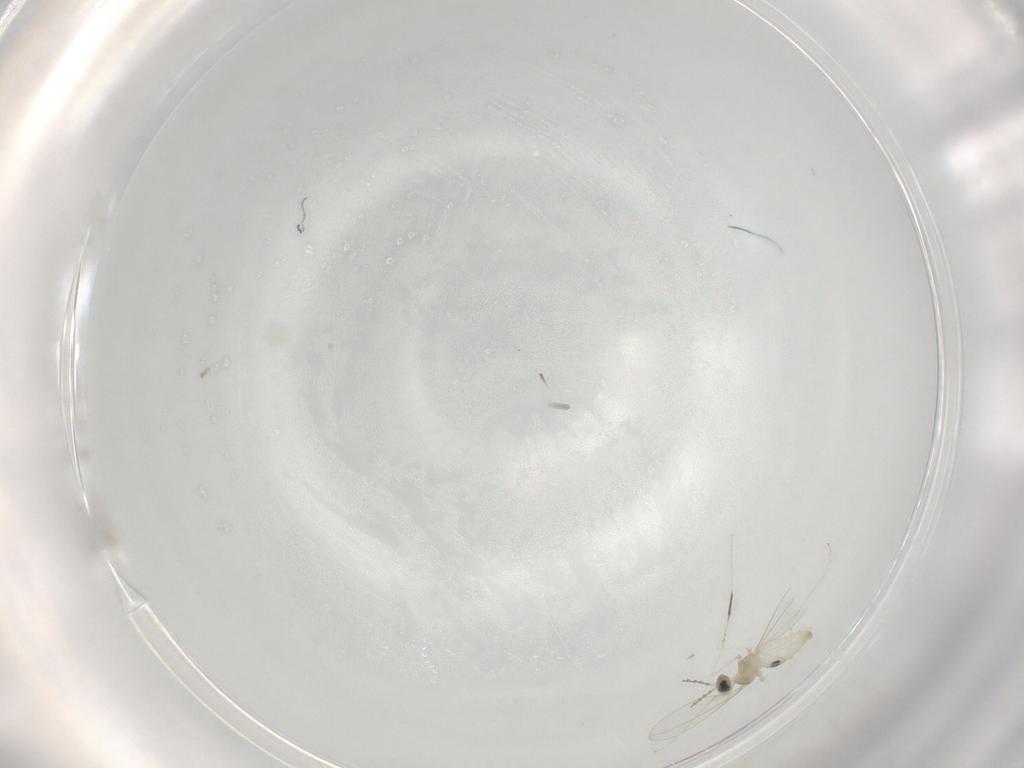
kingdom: Animalia
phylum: Arthropoda
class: Insecta
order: Diptera
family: Cecidomyiidae
